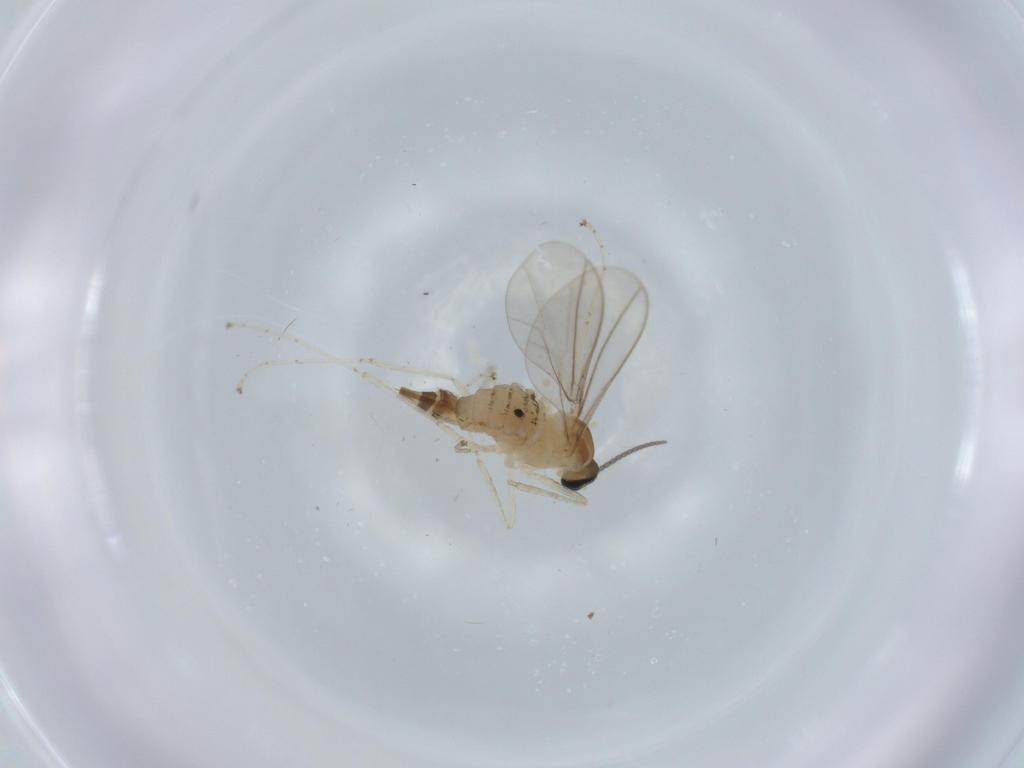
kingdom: Animalia
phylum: Arthropoda
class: Insecta
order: Diptera
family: Cecidomyiidae
